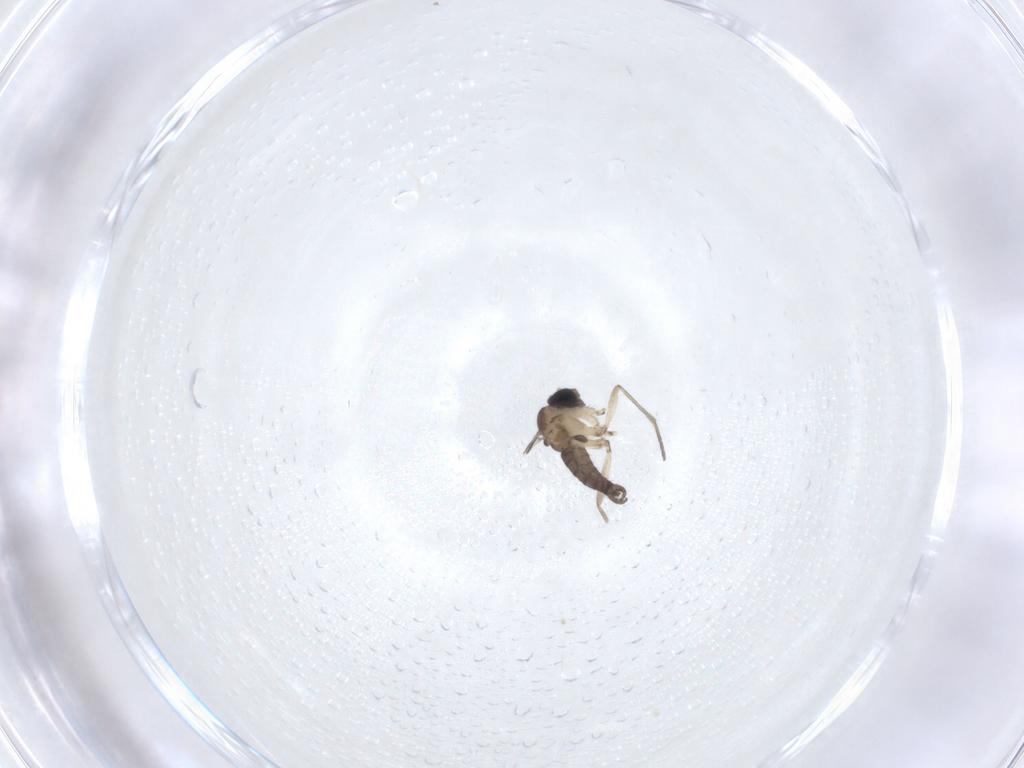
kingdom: Animalia
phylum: Arthropoda
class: Insecta
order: Diptera
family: Sciaridae
